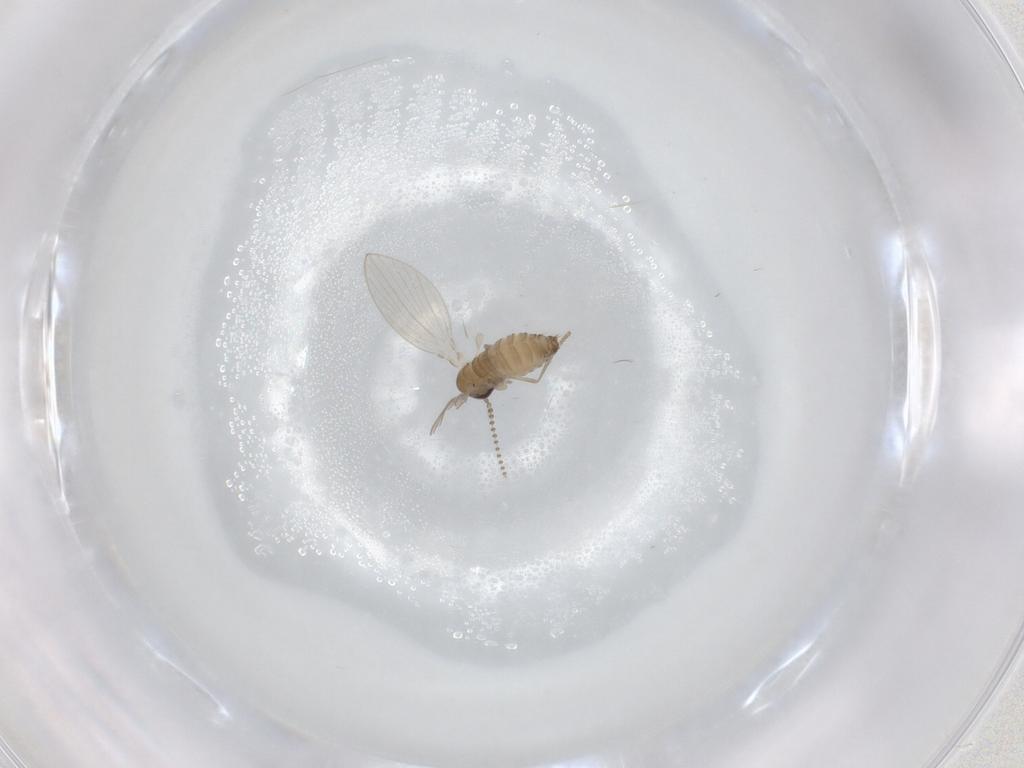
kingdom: Animalia
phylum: Arthropoda
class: Insecta
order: Diptera
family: Psychodidae
